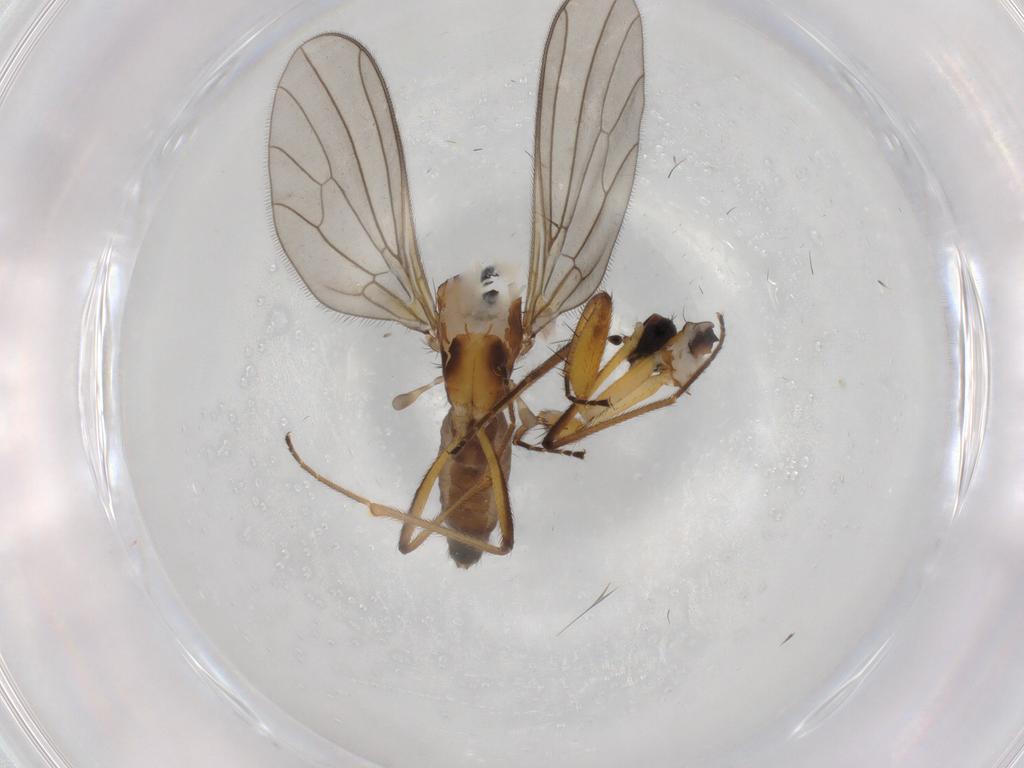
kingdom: Animalia
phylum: Arthropoda
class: Insecta
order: Diptera
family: Empididae
